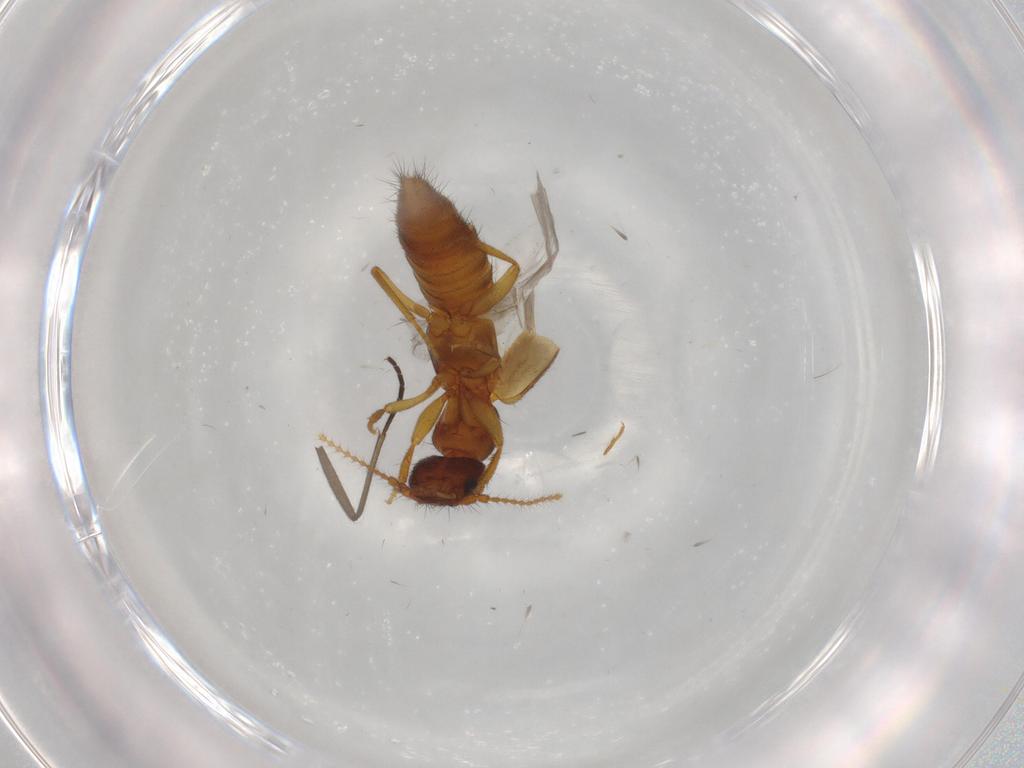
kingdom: Animalia
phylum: Arthropoda
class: Insecta
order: Coleoptera
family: Staphylinidae
